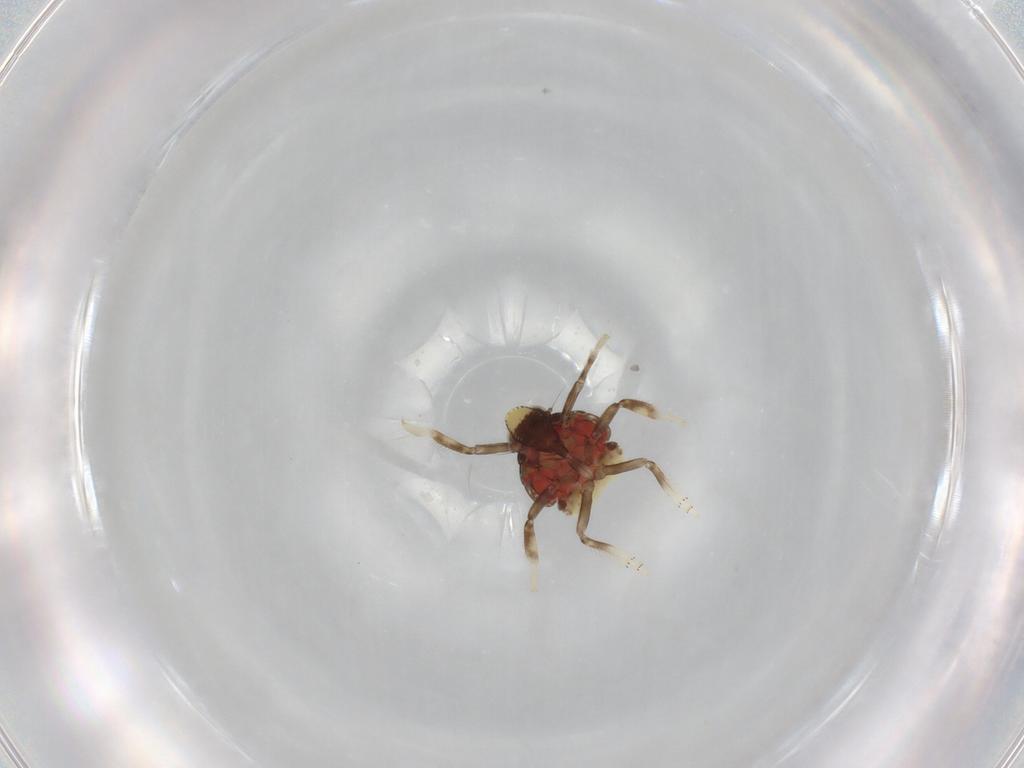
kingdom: Animalia
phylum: Arthropoda
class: Insecta
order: Hemiptera
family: Issidae
